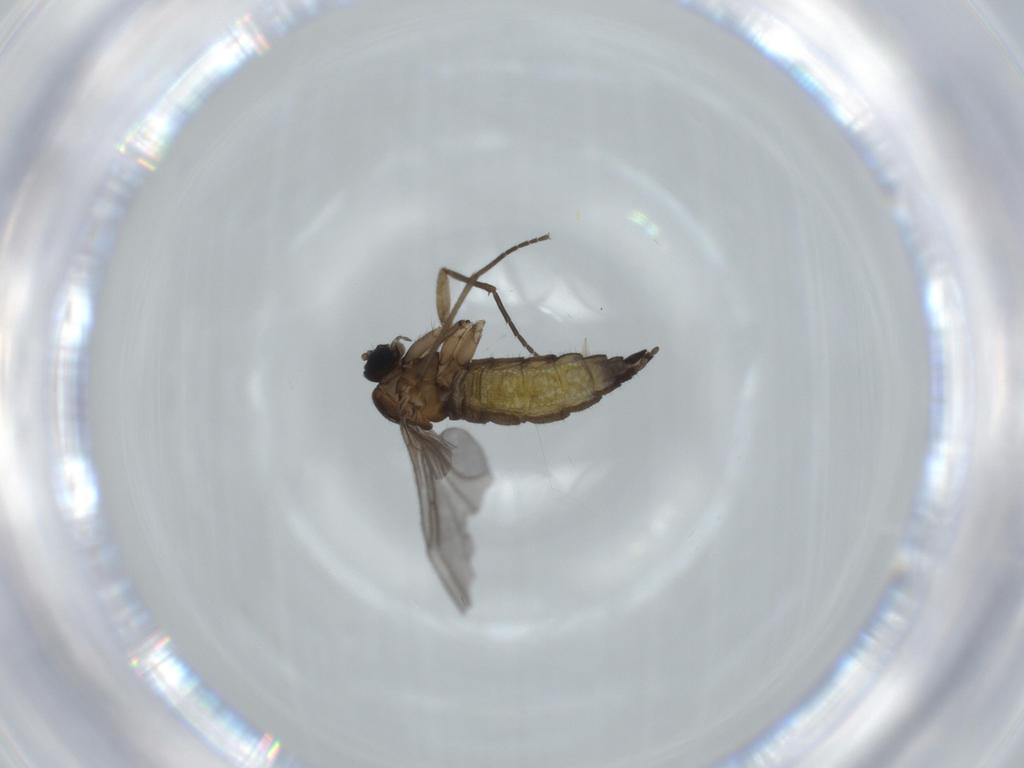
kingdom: Animalia
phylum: Arthropoda
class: Insecta
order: Diptera
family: Sciaridae
